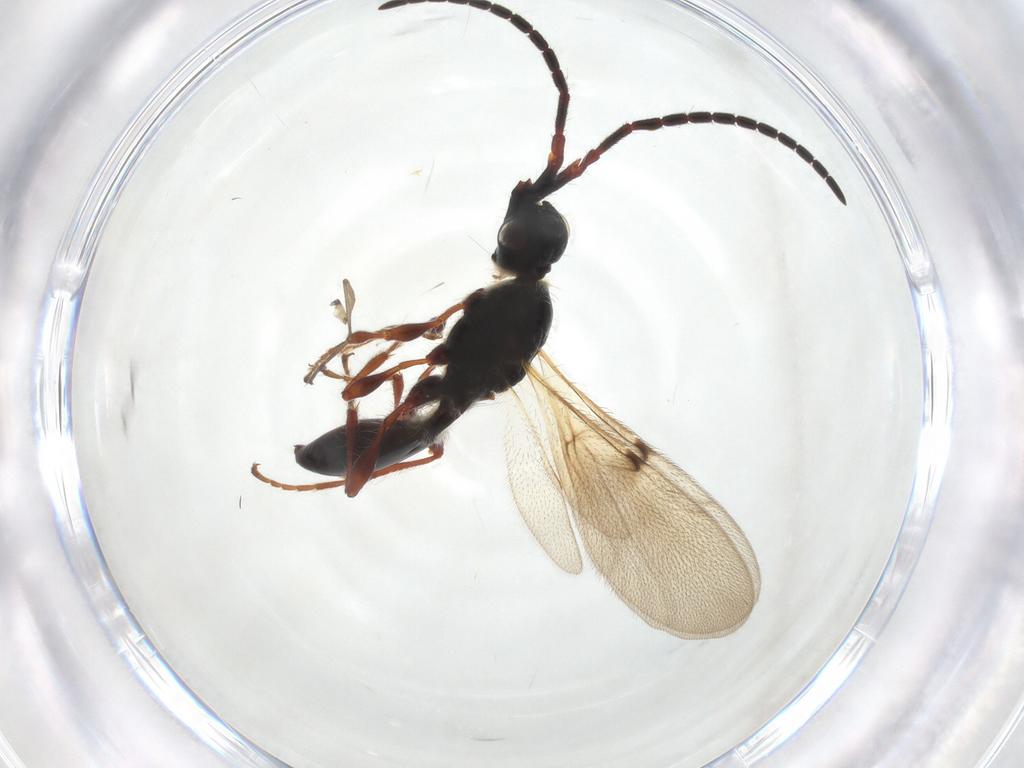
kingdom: Animalia
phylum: Arthropoda
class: Insecta
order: Hymenoptera
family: Diapriidae
